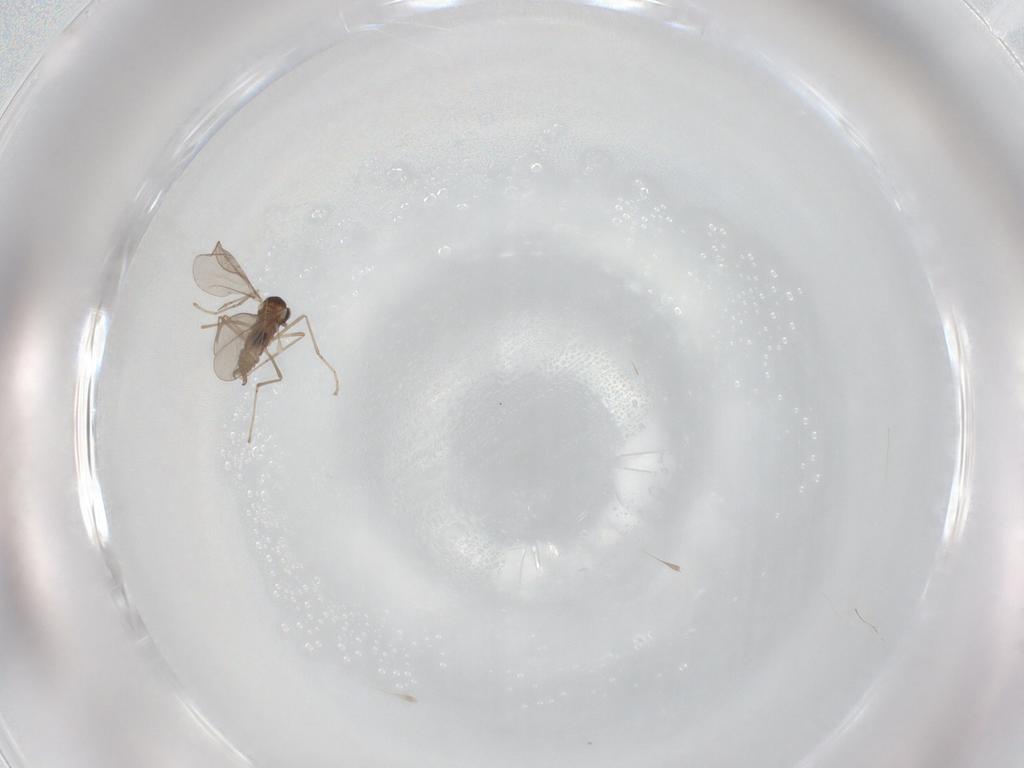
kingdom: Animalia
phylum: Arthropoda
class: Insecta
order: Diptera
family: Cecidomyiidae
